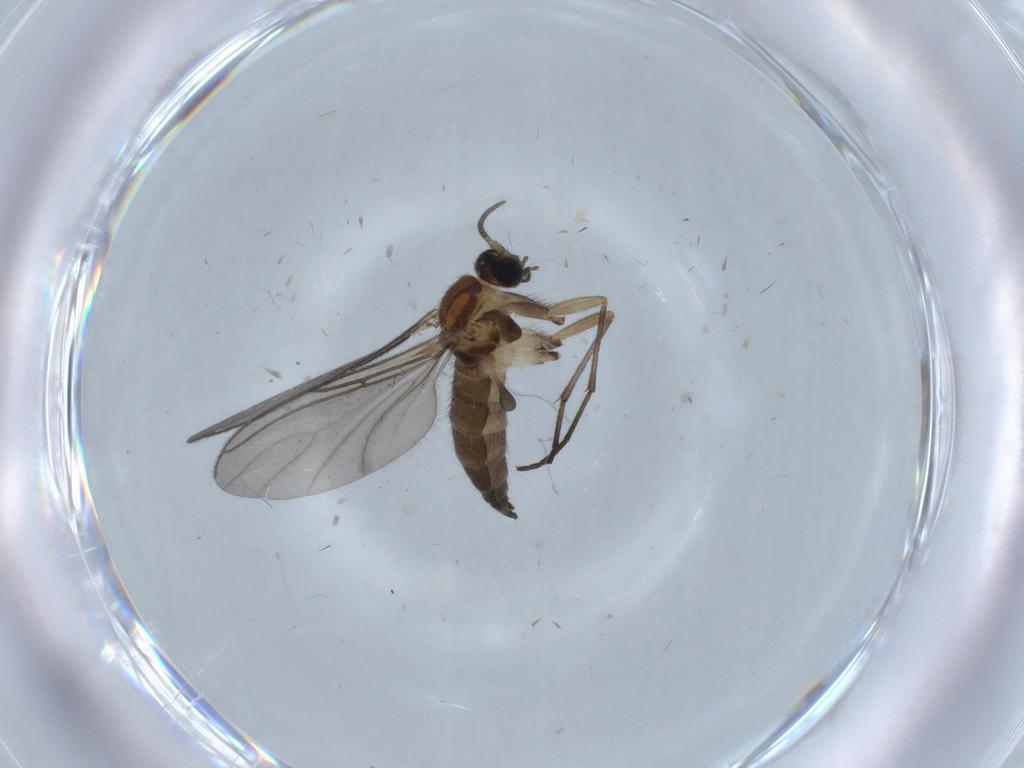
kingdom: Animalia
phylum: Arthropoda
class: Insecta
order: Diptera
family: Sciaridae
